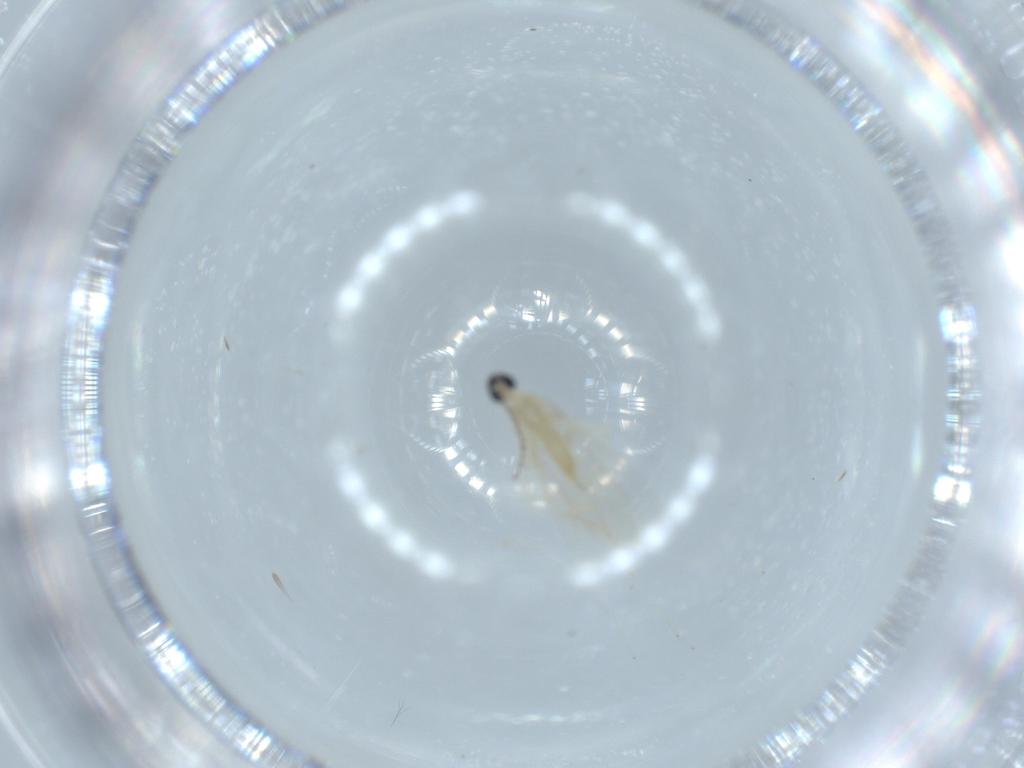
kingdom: Animalia
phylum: Arthropoda
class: Insecta
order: Diptera
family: Cecidomyiidae
